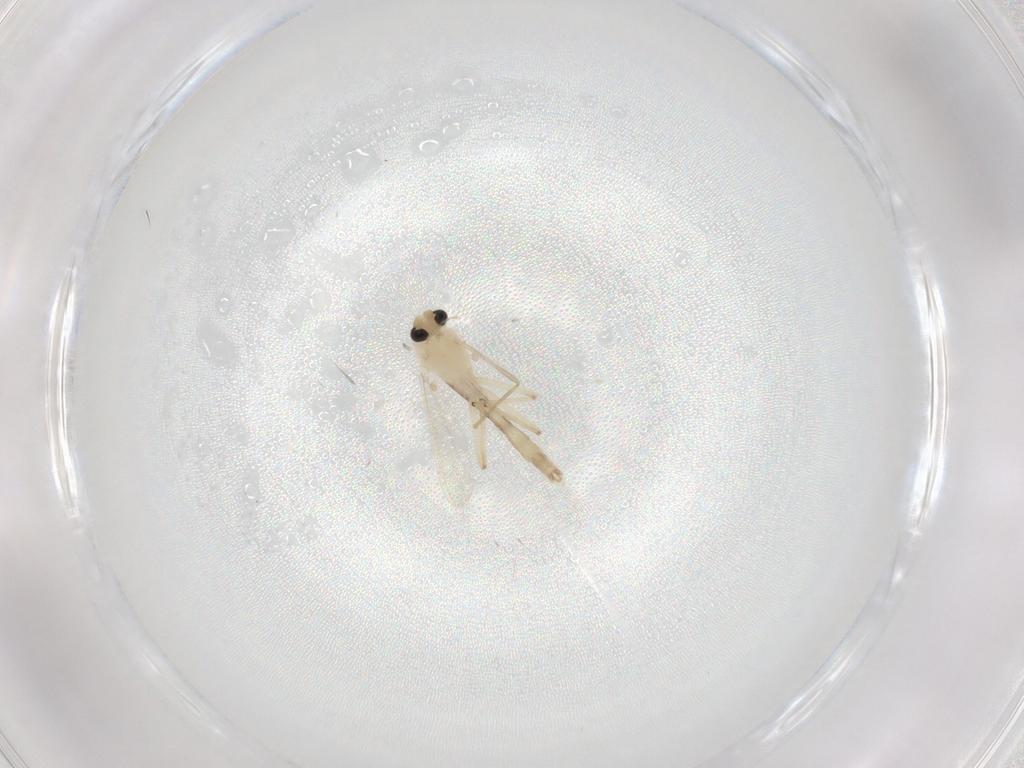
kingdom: Animalia
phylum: Arthropoda
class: Insecta
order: Diptera
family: Chironomidae
